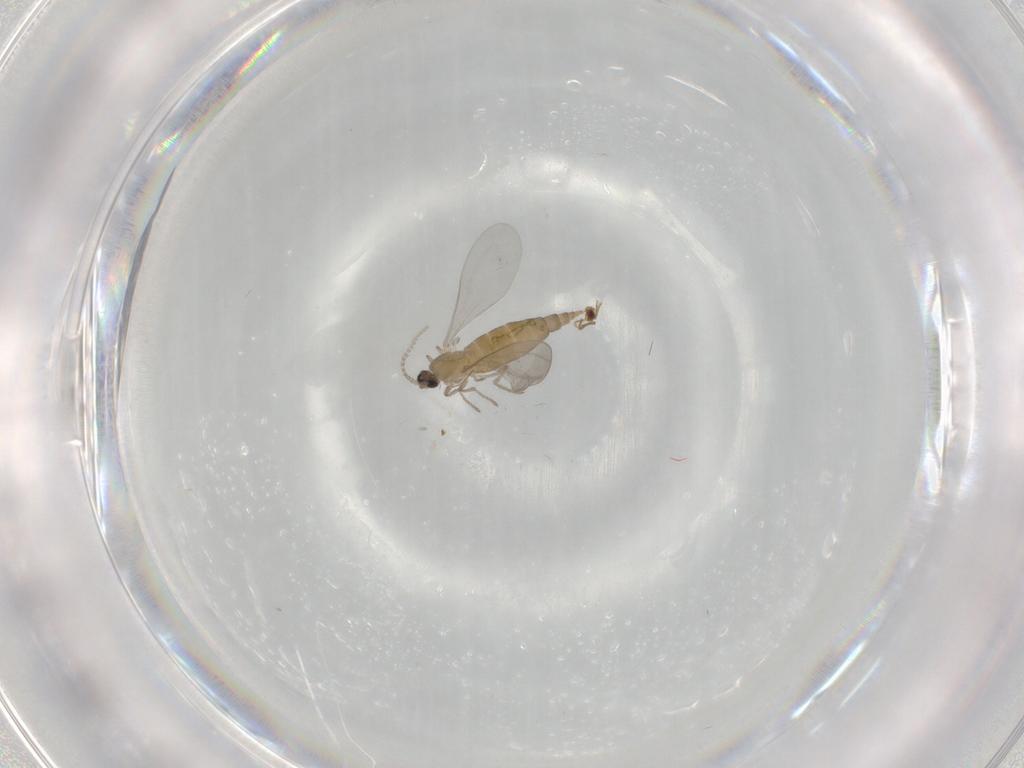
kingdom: Animalia
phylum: Arthropoda
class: Insecta
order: Diptera
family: Cecidomyiidae
